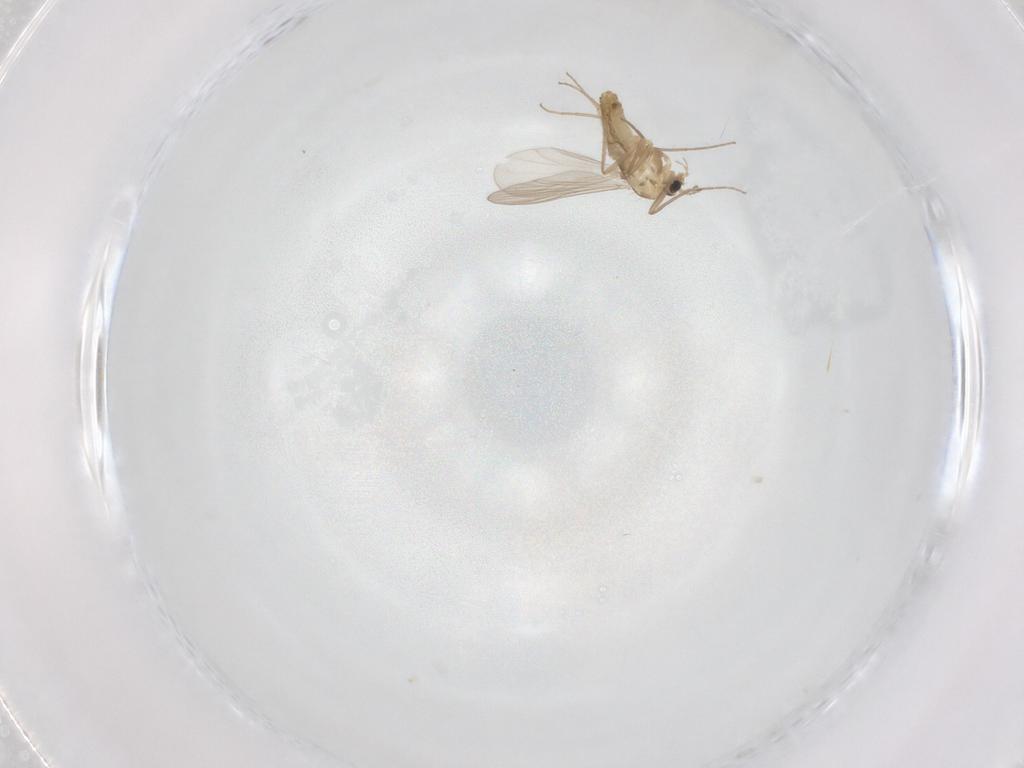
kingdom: Animalia
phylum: Arthropoda
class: Insecta
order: Diptera
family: Chironomidae
